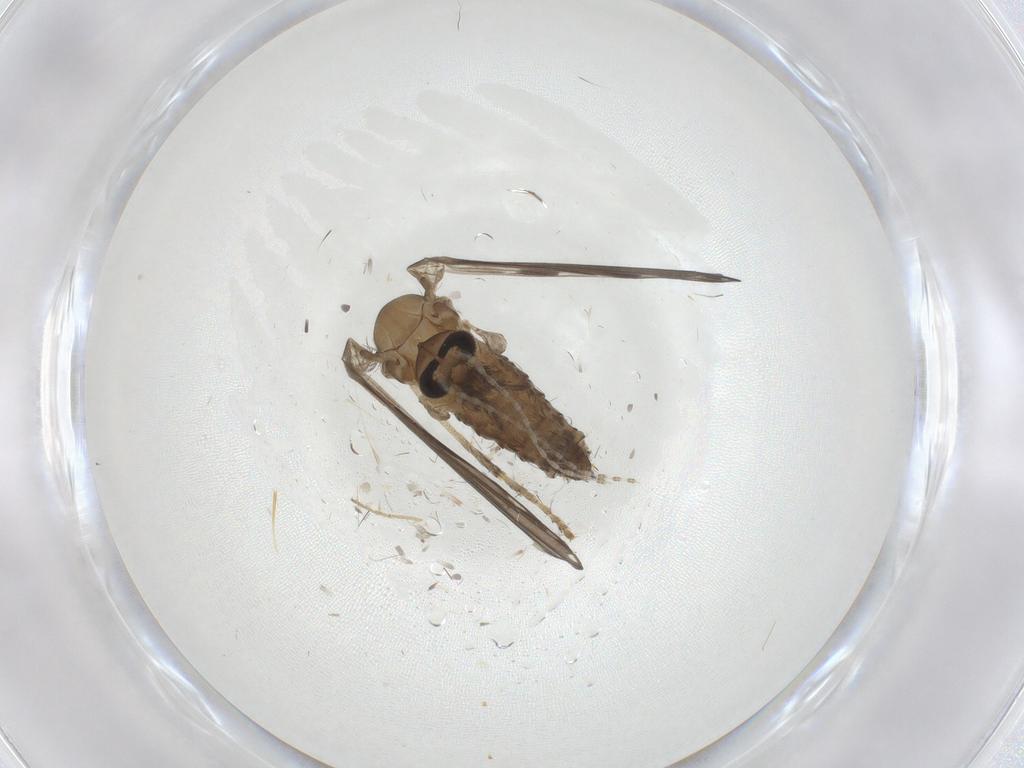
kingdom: Animalia
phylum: Arthropoda
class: Insecta
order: Diptera
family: Psychodidae
